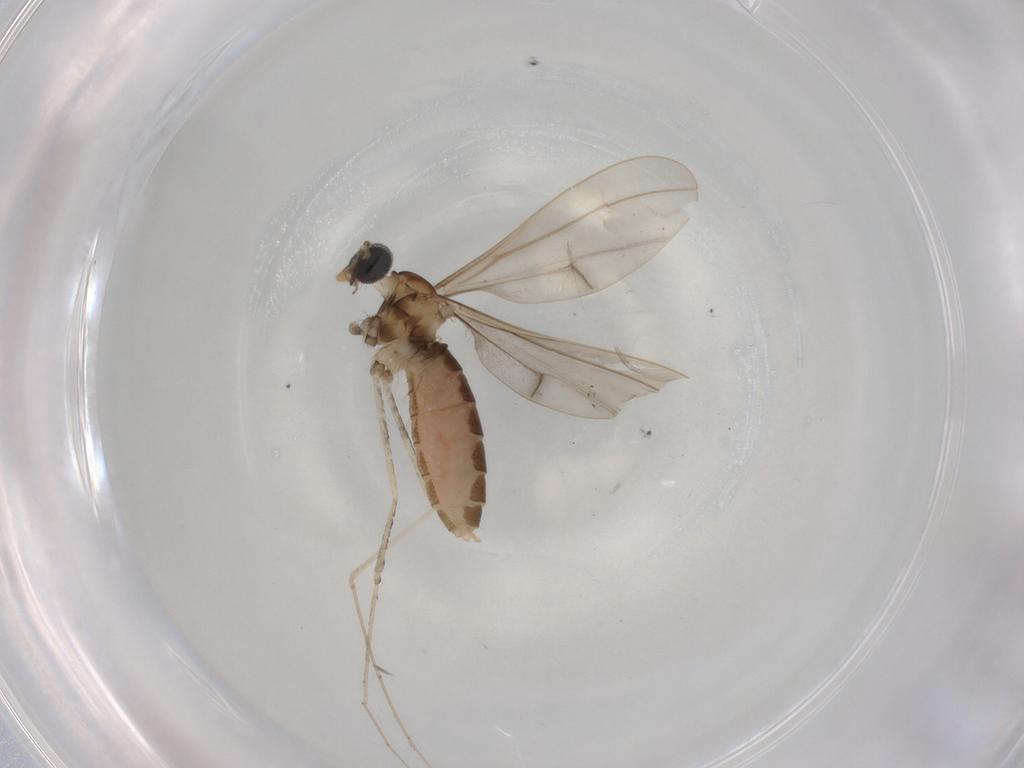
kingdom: Animalia
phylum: Arthropoda
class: Insecta
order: Diptera
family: Cecidomyiidae
